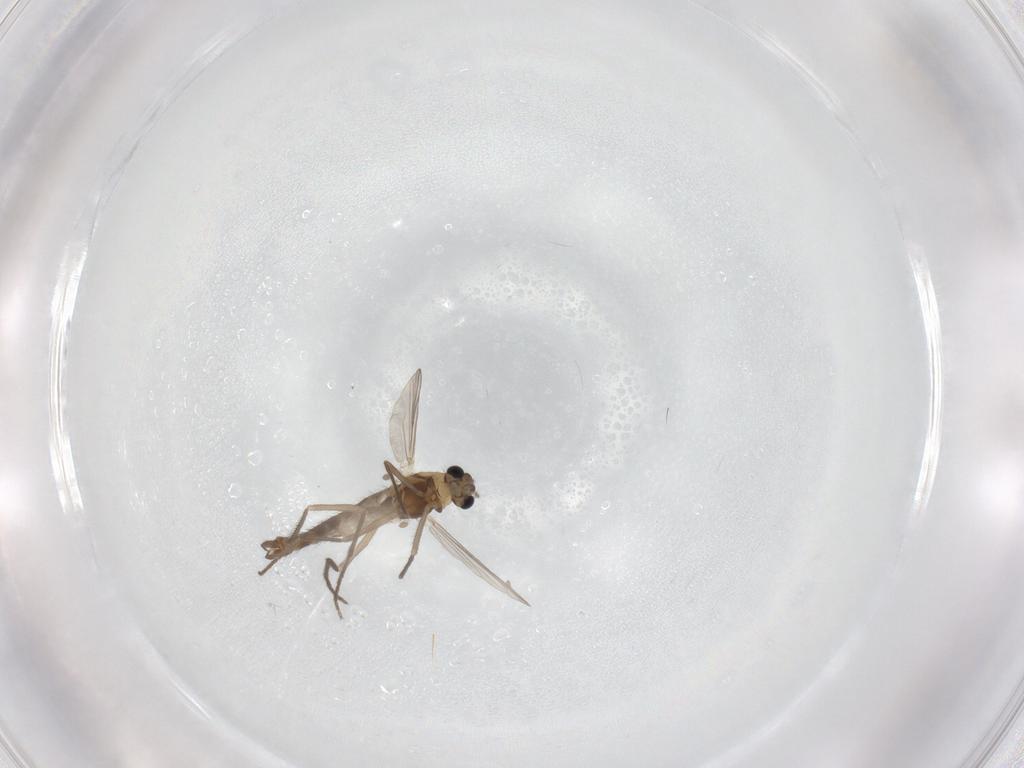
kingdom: Animalia
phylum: Arthropoda
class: Insecta
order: Diptera
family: Chironomidae
